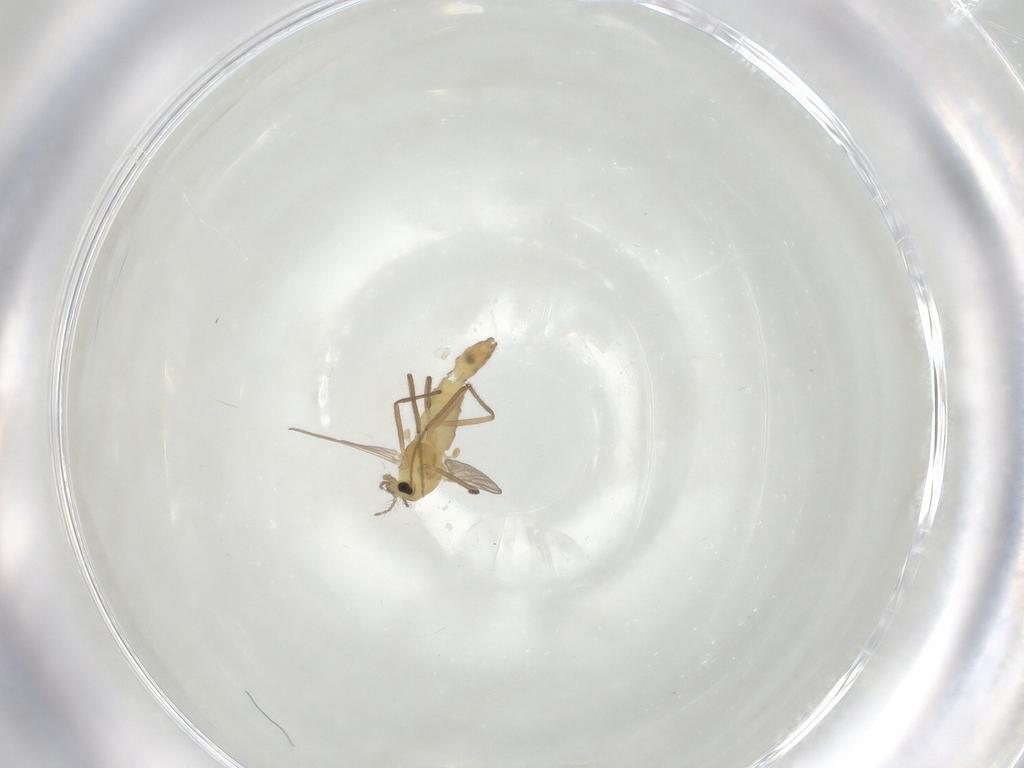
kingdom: Animalia
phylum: Arthropoda
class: Insecta
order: Diptera
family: Chironomidae
